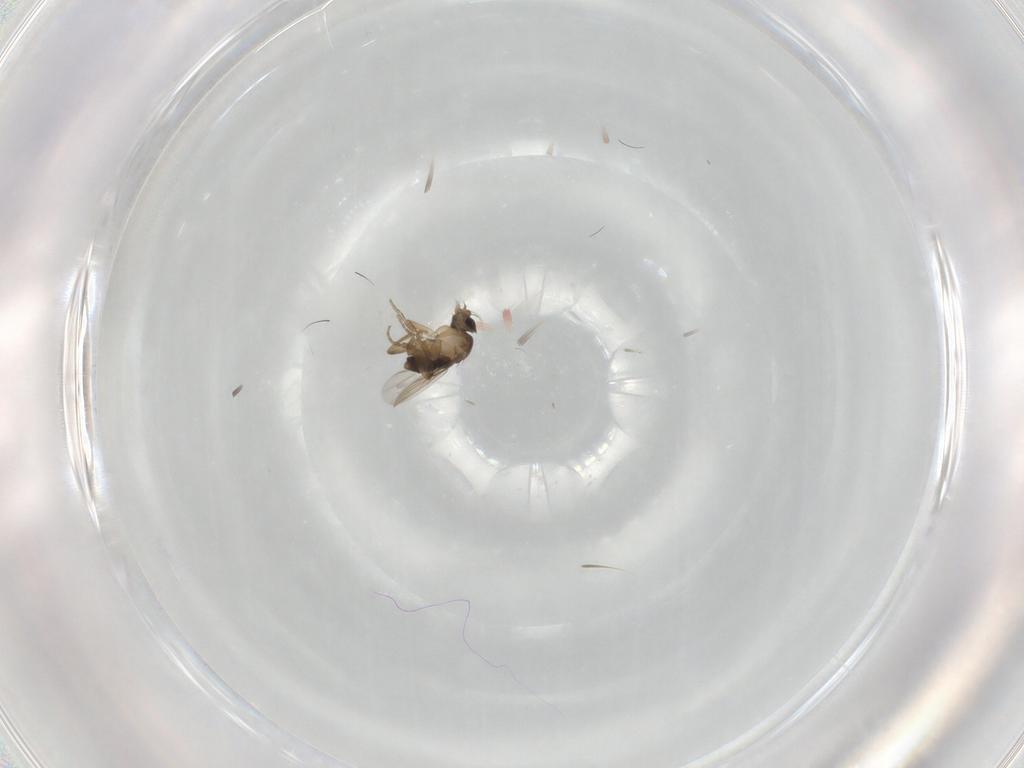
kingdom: Animalia
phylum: Arthropoda
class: Insecta
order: Diptera
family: Phoridae
